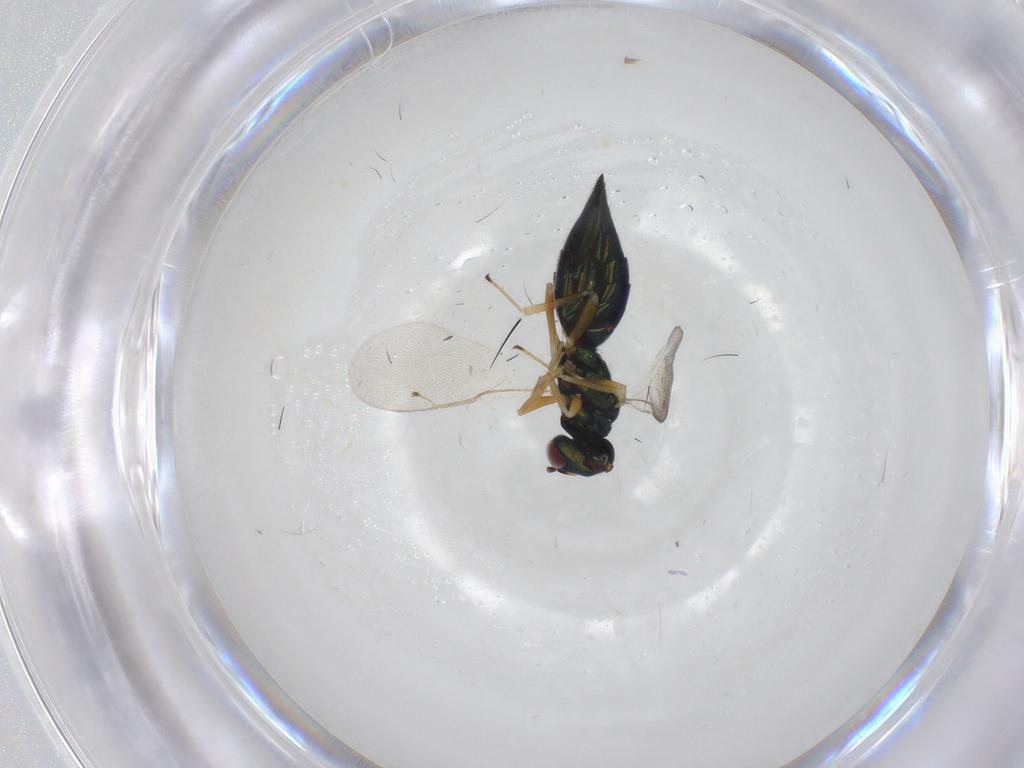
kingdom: Animalia
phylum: Arthropoda
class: Insecta
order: Hymenoptera
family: Pteromalidae
